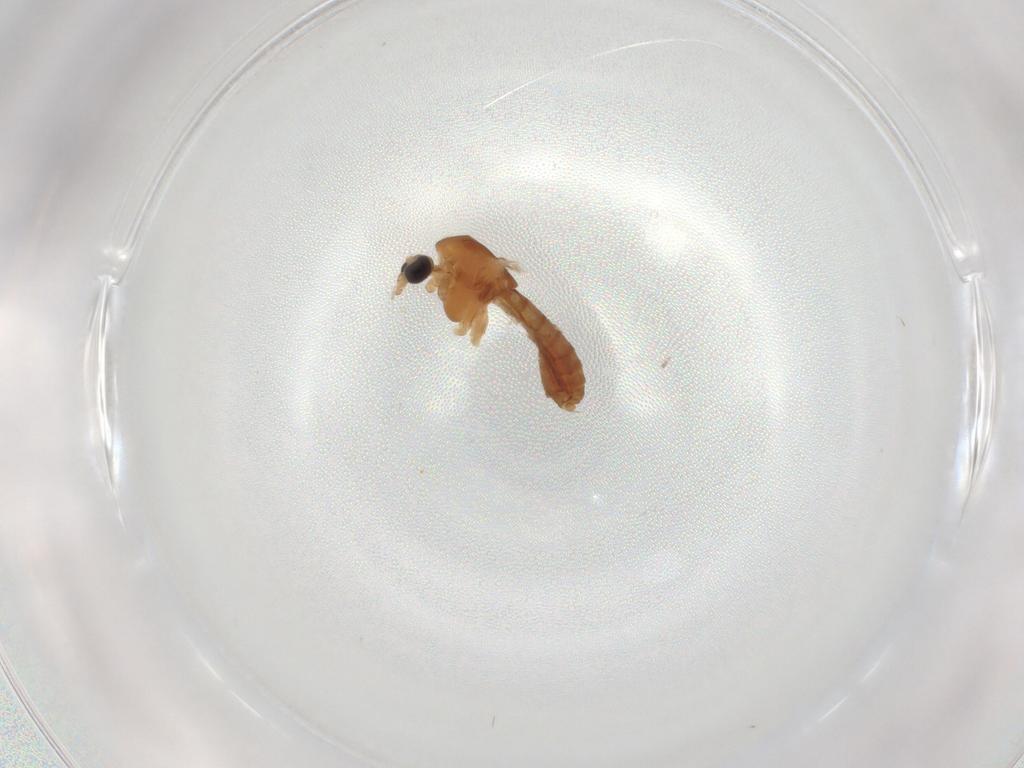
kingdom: Animalia
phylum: Arthropoda
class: Insecta
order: Diptera
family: Chironomidae
